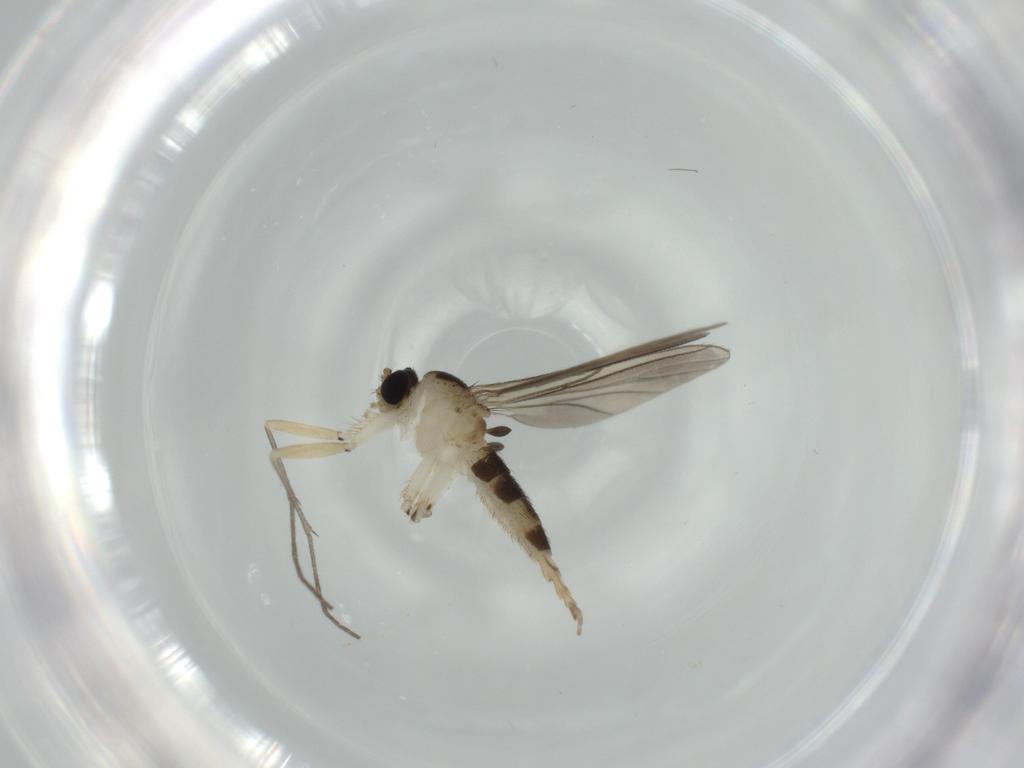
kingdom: Animalia
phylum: Arthropoda
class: Insecta
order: Diptera
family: Sciaridae
